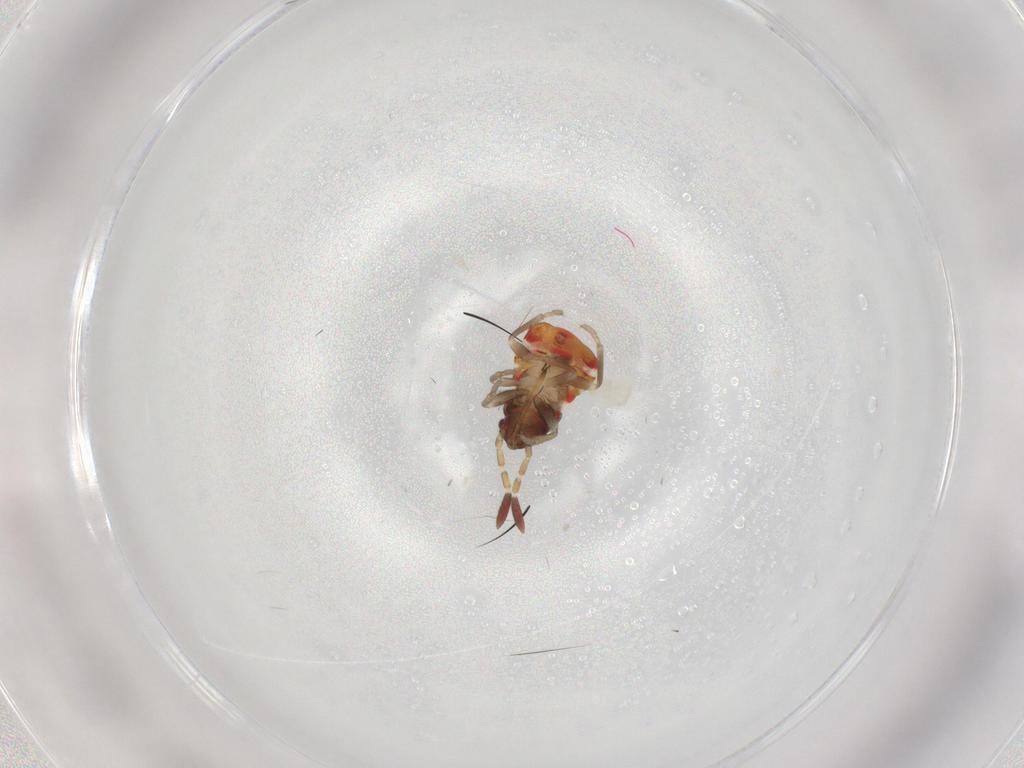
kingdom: Animalia
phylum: Arthropoda
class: Insecta
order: Hemiptera
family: Rhyparochromidae
